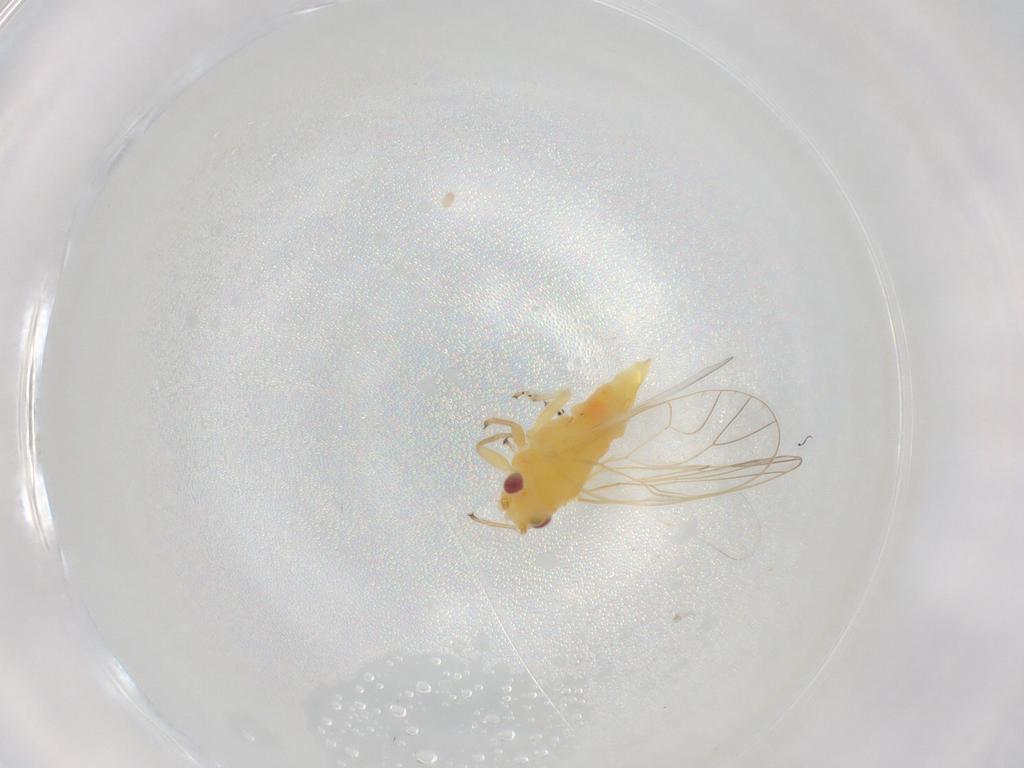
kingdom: Animalia
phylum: Arthropoda
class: Insecta
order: Hemiptera
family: Psyllidae
